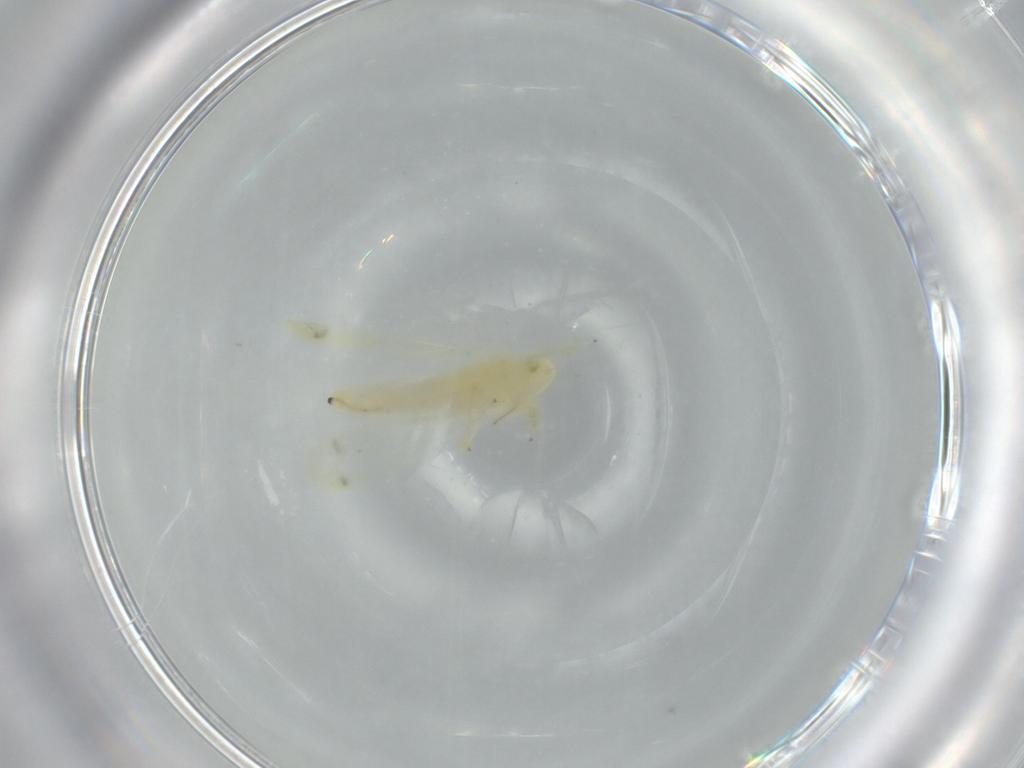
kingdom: Animalia
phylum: Arthropoda
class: Insecta
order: Hemiptera
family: Cicadellidae
